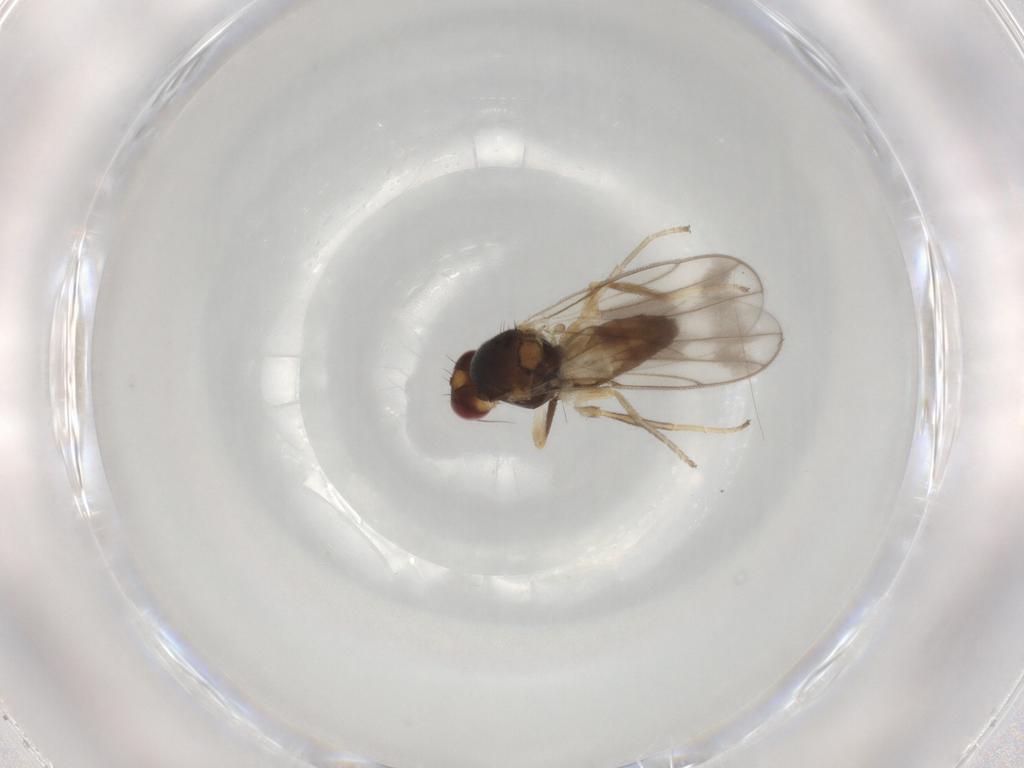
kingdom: Animalia
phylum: Arthropoda
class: Insecta
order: Diptera
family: Chloropidae
